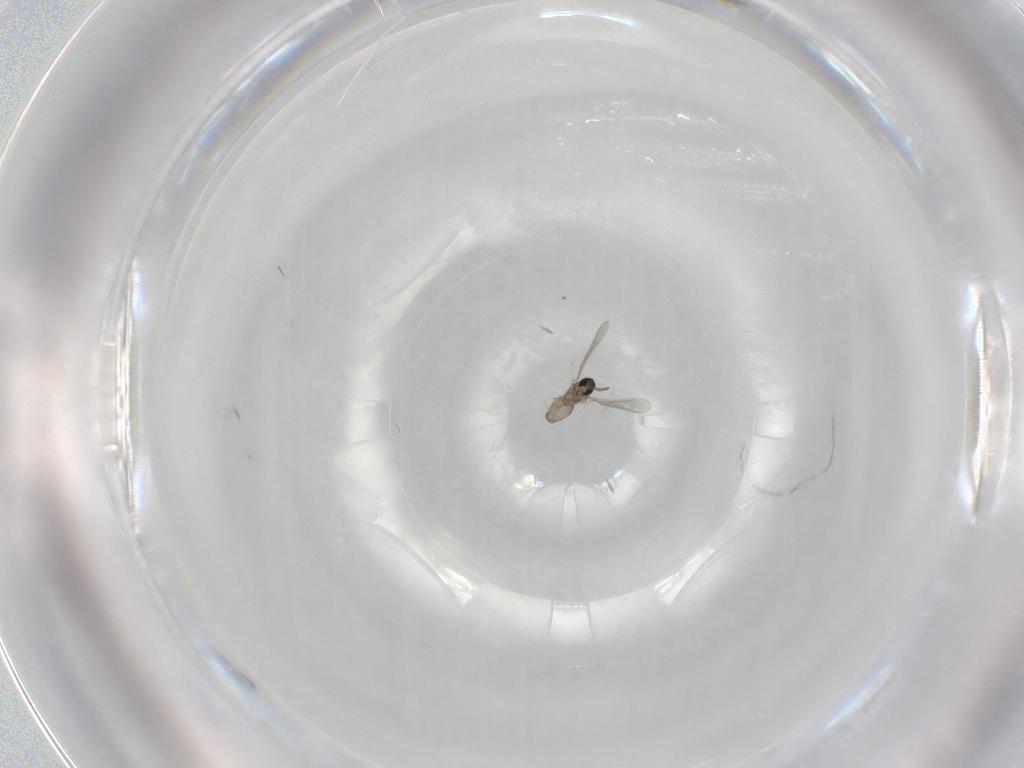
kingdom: Animalia
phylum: Arthropoda
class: Insecta
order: Diptera
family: Cecidomyiidae
